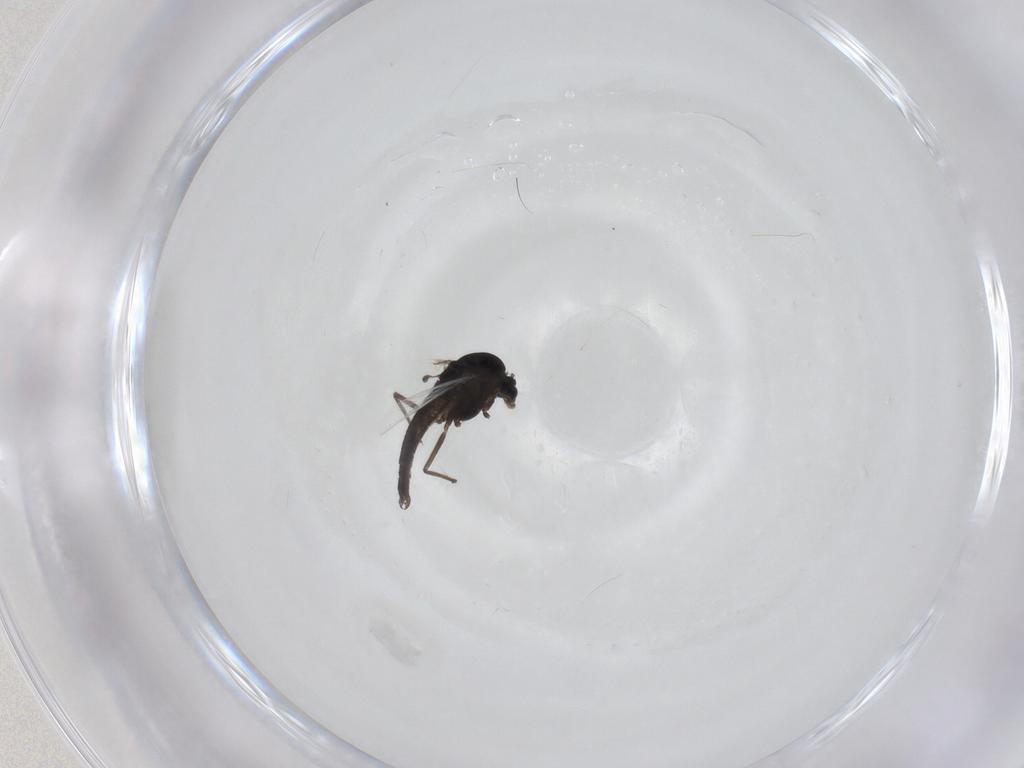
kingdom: Animalia
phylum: Arthropoda
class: Insecta
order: Diptera
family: Chironomidae
